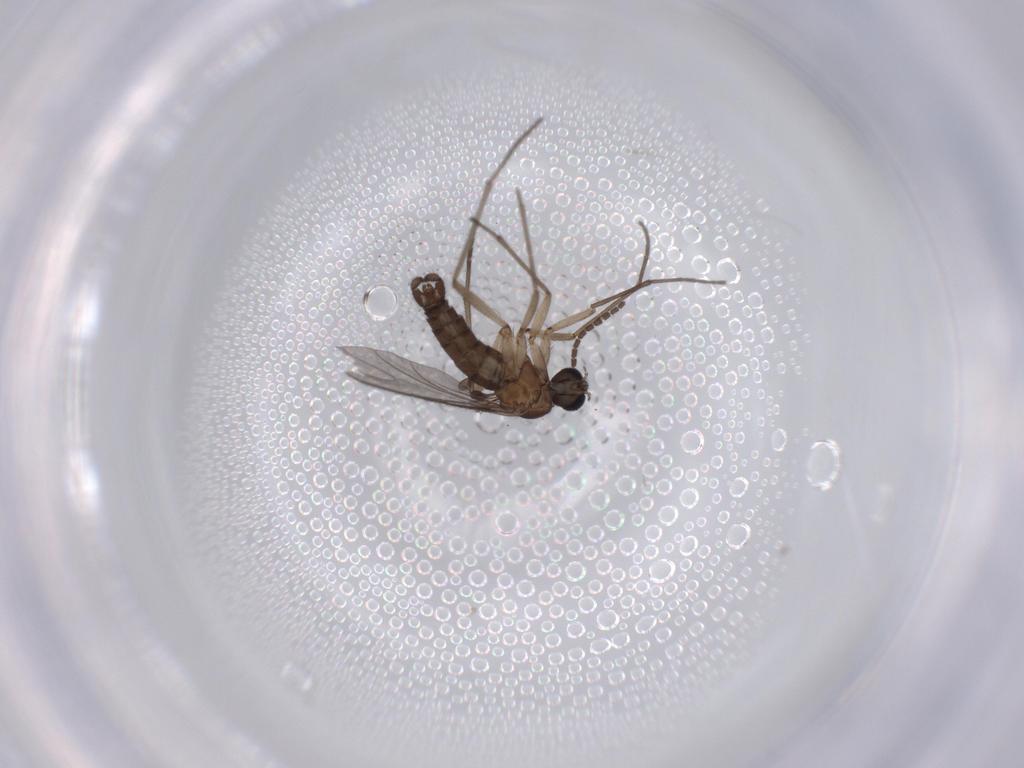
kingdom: Animalia
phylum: Arthropoda
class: Insecta
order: Diptera
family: Sciaridae
